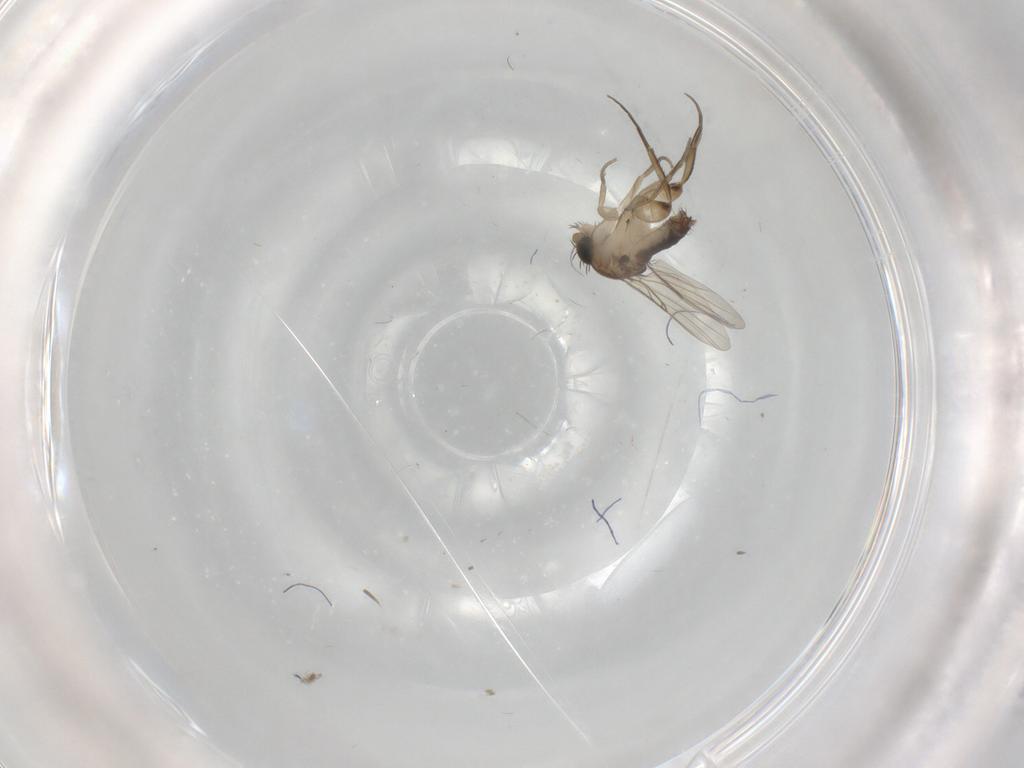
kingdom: Animalia
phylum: Arthropoda
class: Insecta
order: Diptera
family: Phoridae
